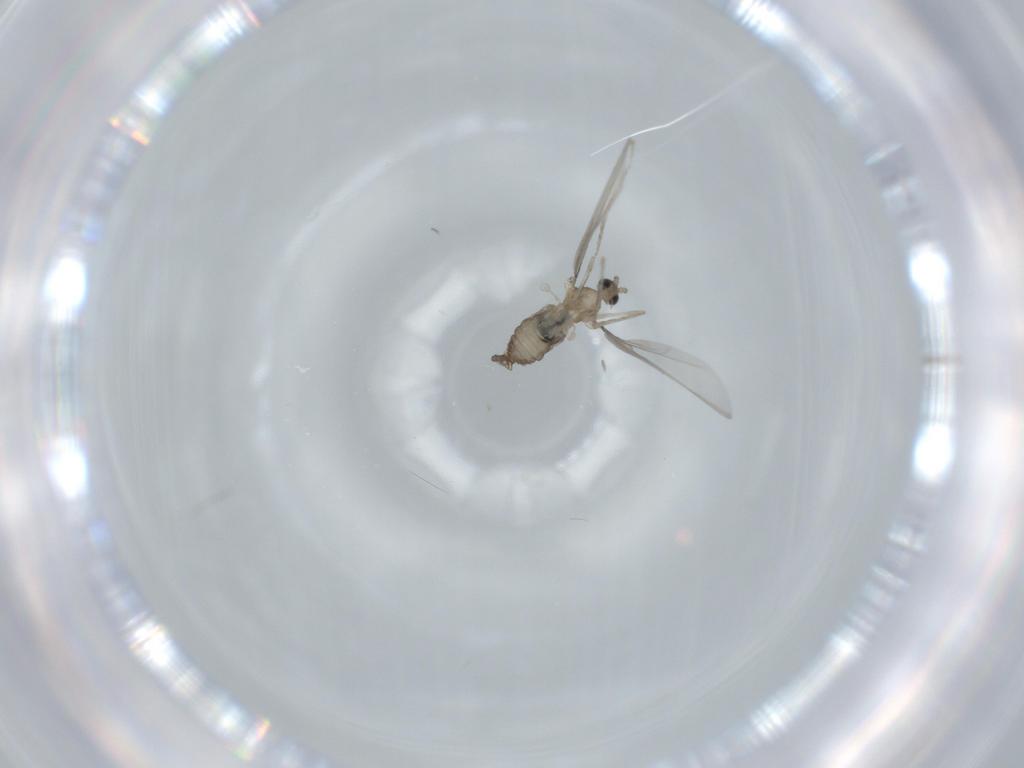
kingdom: Animalia
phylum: Arthropoda
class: Insecta
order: Diptera
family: Cecidomyiidae
